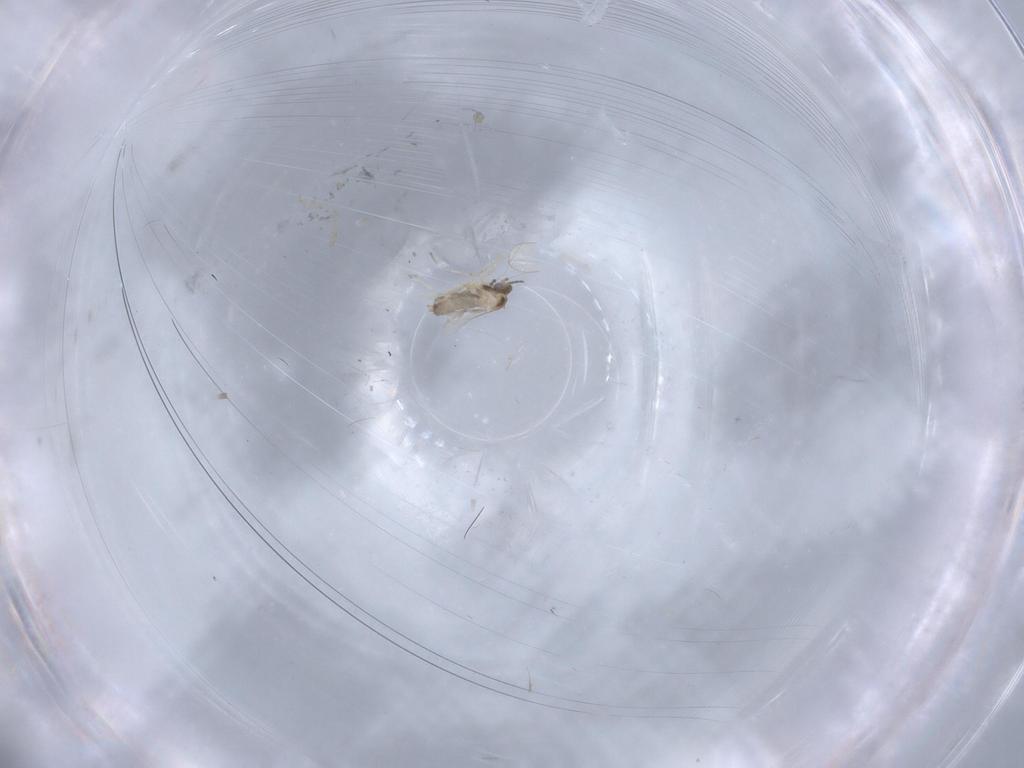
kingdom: Animalia
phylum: Arthropoda
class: Insecta
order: Diptera
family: Cecidomyiidae
